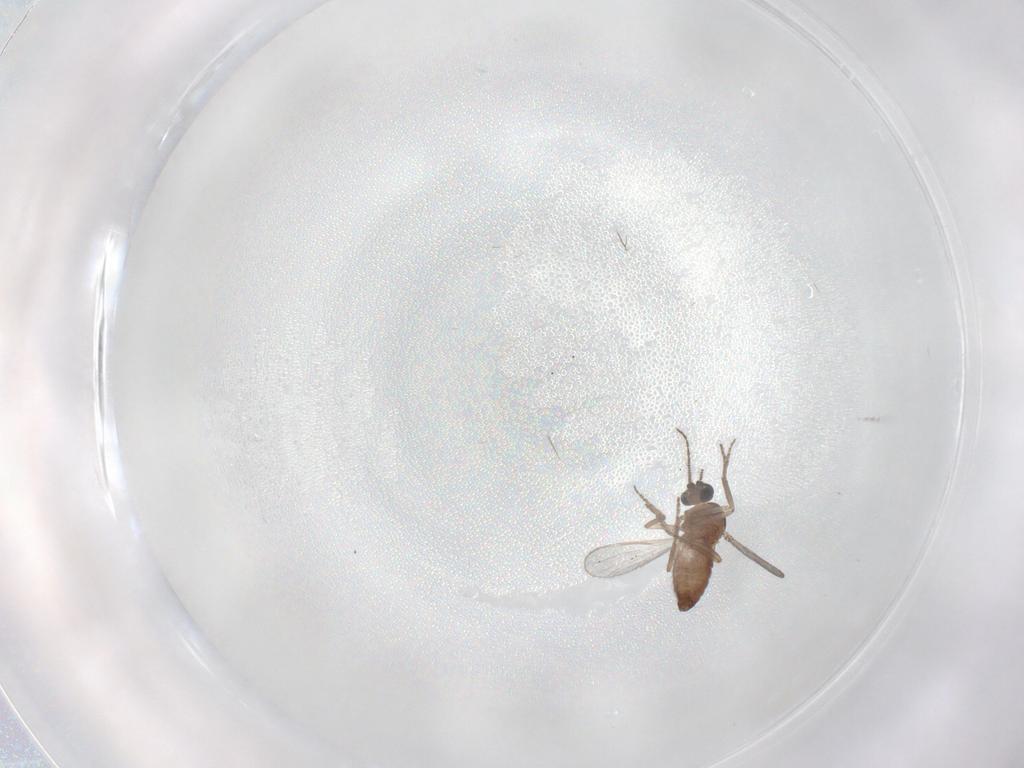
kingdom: Animalia
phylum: Arthropoda
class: Insecta
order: Diptera
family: Ceratopogonidae
